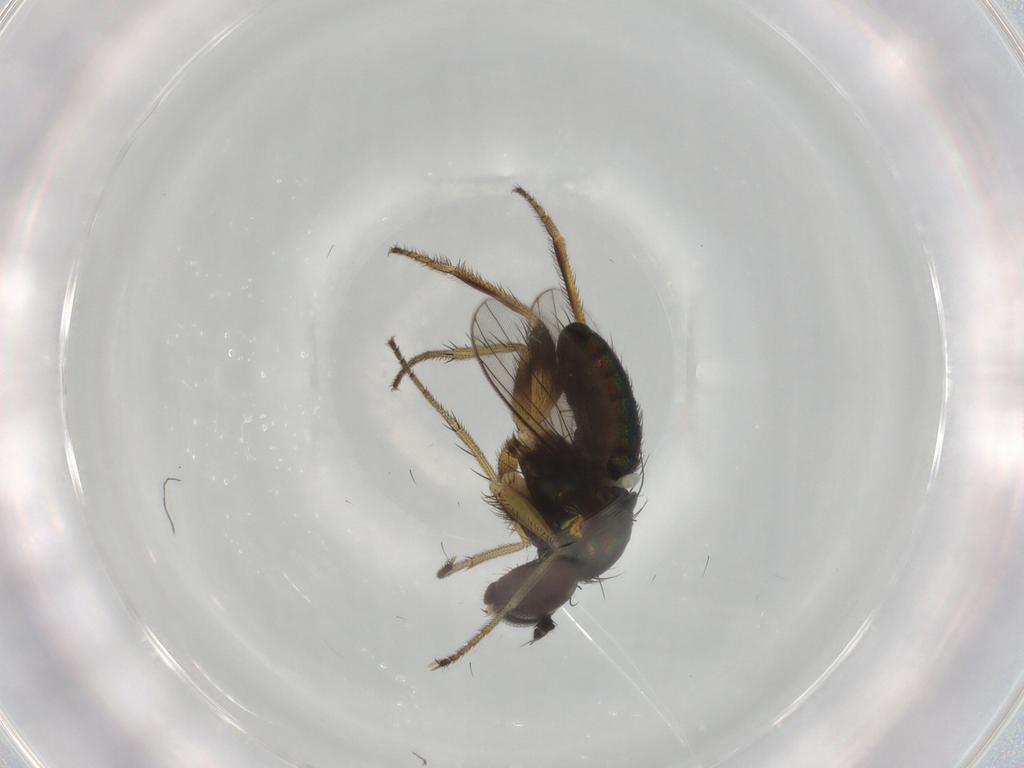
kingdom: Animalia
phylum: Arthropoda
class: Insecta
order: Diptera
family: Dolichopodidae
